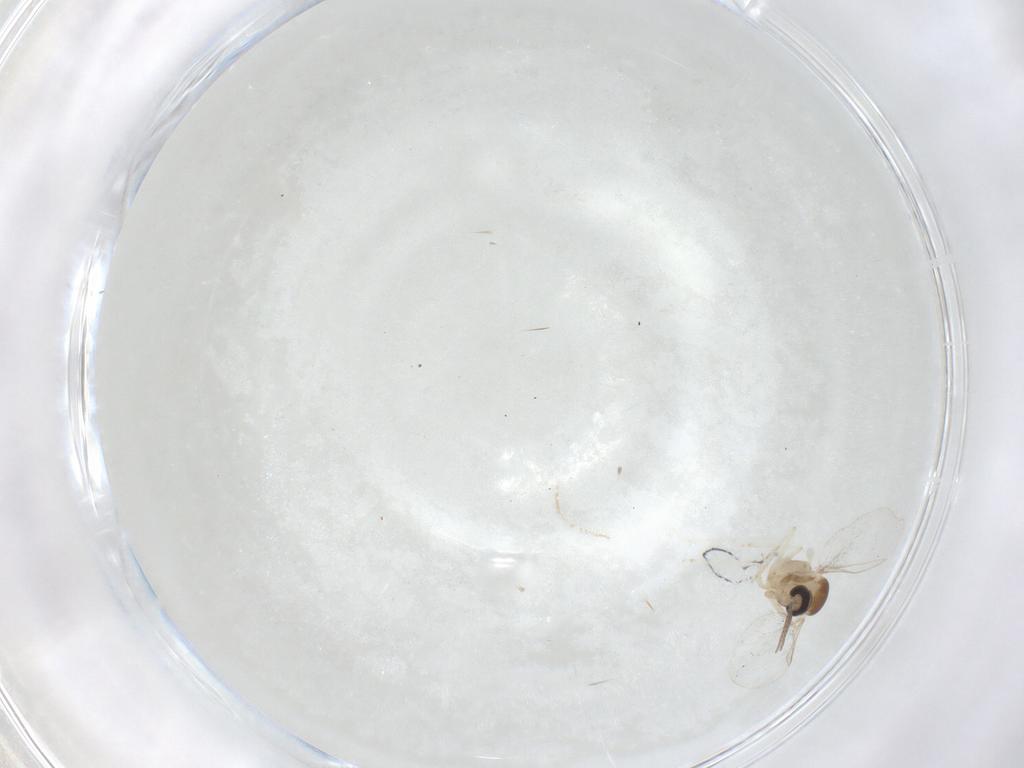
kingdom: Animalia
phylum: Arthropoda
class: Insecta
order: Diptera
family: Cecidomyiidae
